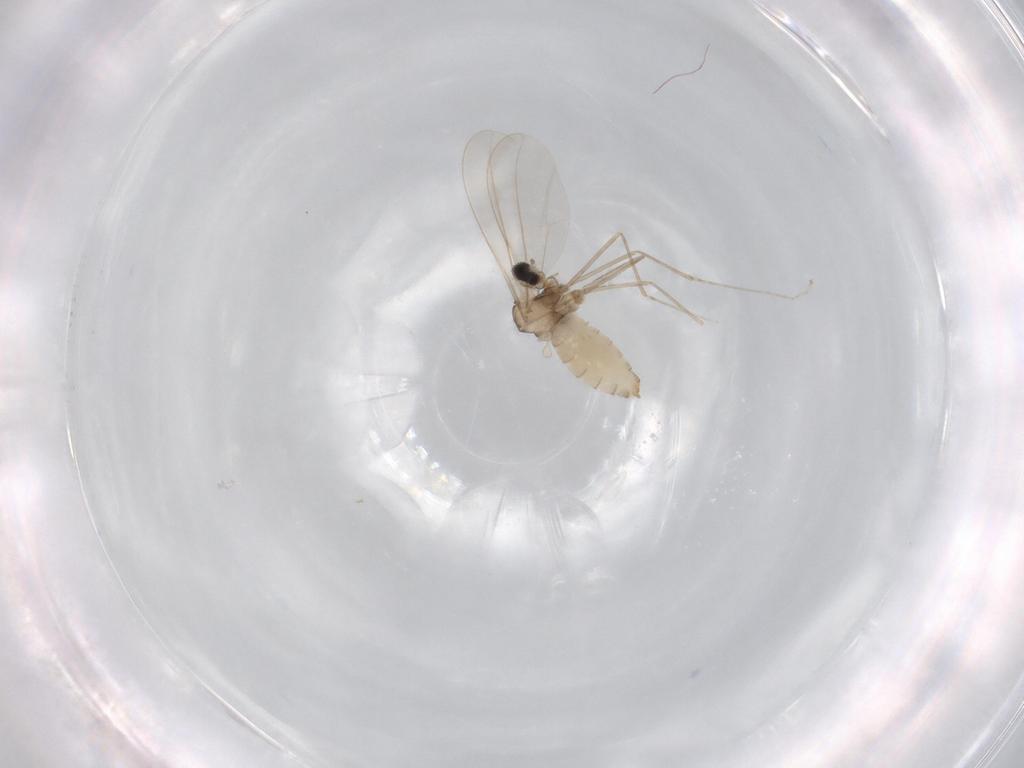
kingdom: Animalia
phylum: Arthropoda
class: Insecta
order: Diptera
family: Cecidomyiidae
